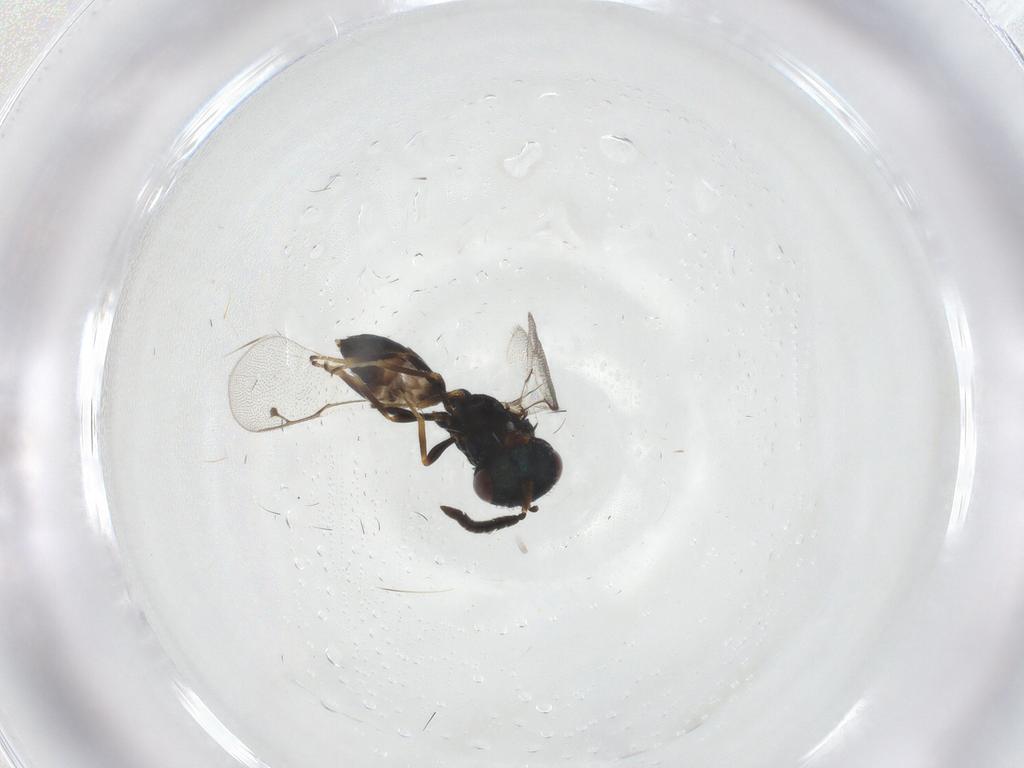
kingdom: Animalia
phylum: Arthropoda
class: Insecta
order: Hymenoptera
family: Pteromalidae
